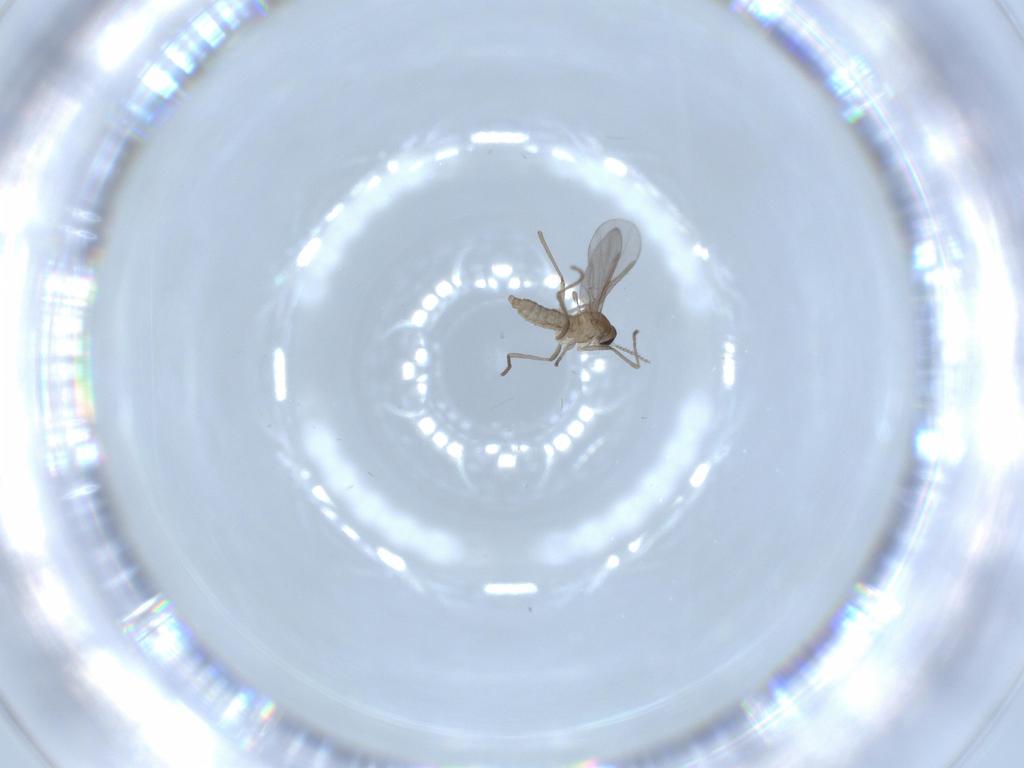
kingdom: Animalia
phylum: Arthropoda
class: Insecta
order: Diptera
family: Cecidomyiidae
